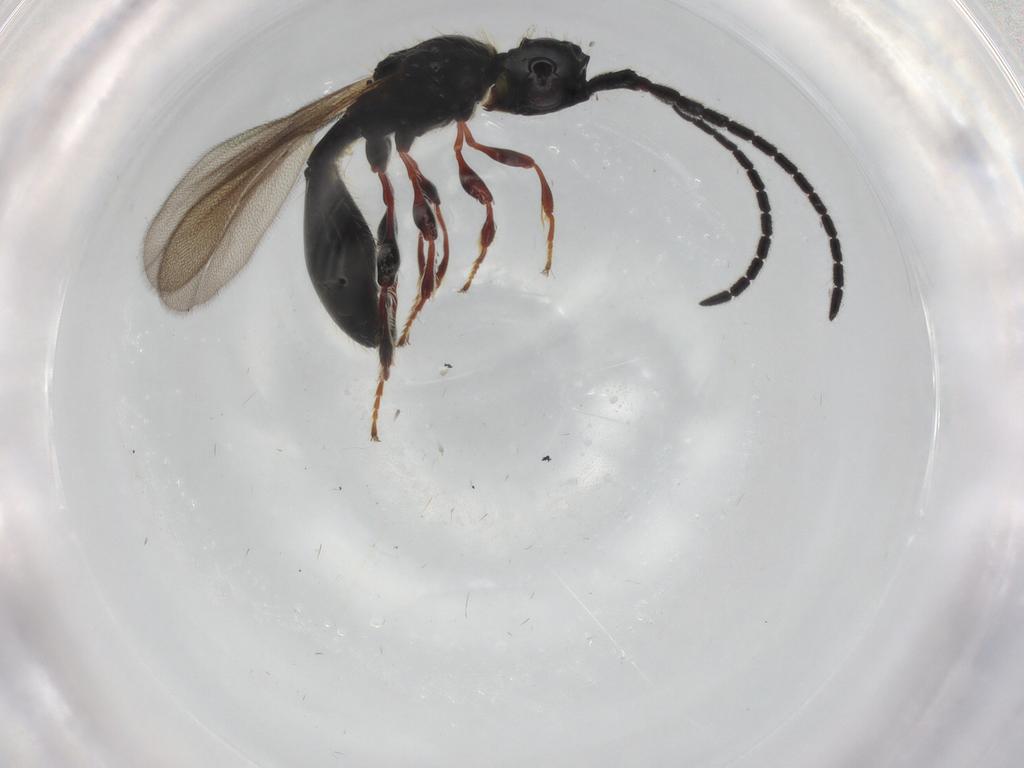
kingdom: Animalia
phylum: Arthropoda
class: Insecta
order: Hymenoptera
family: Diapriidae
